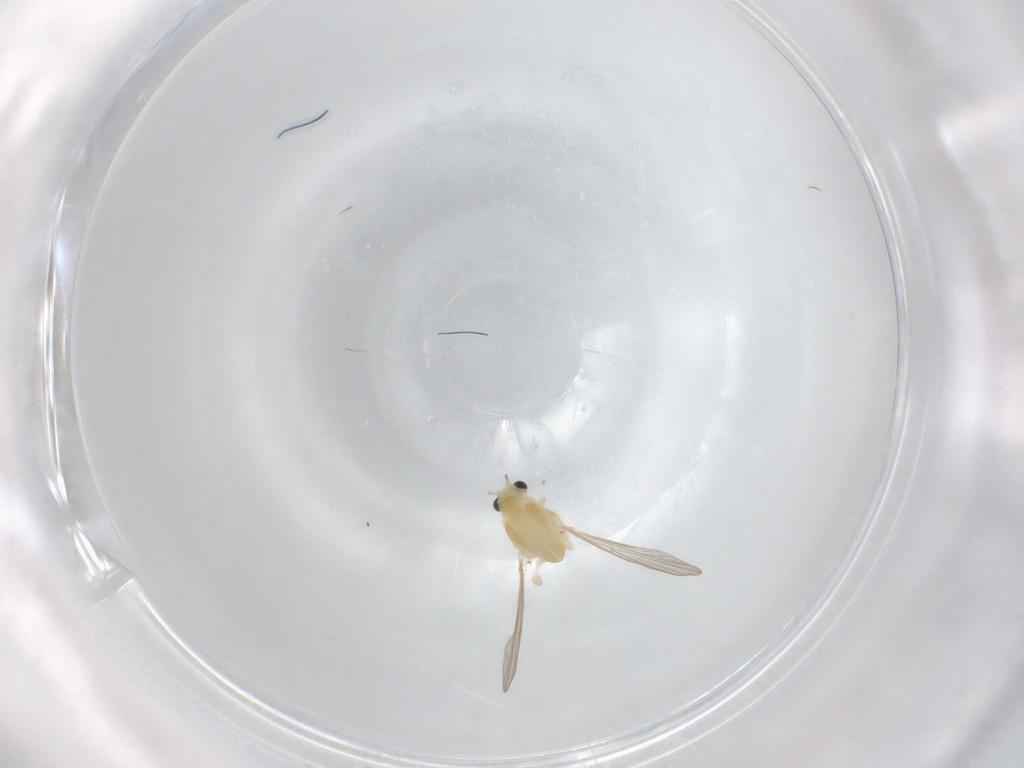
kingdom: Animalia
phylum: Arthropoda
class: Insecta
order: Diptera
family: Chironomidae
